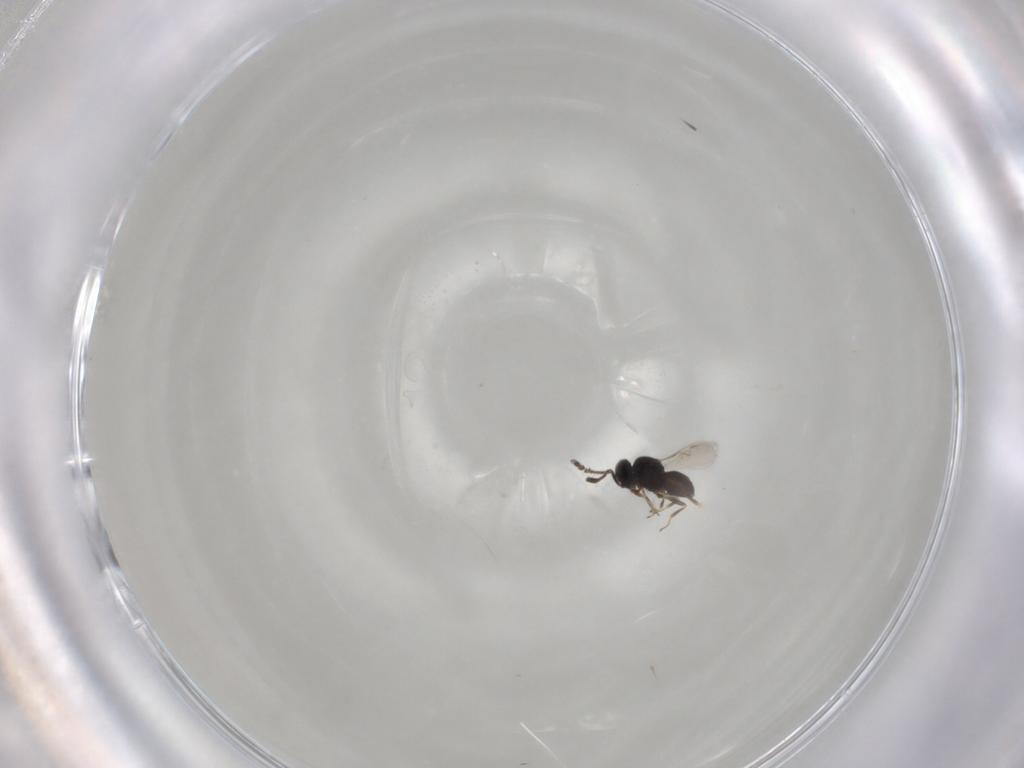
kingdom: Animalia
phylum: Arthropoda
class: Insecta
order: Hymenoptera
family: Scelionidae
